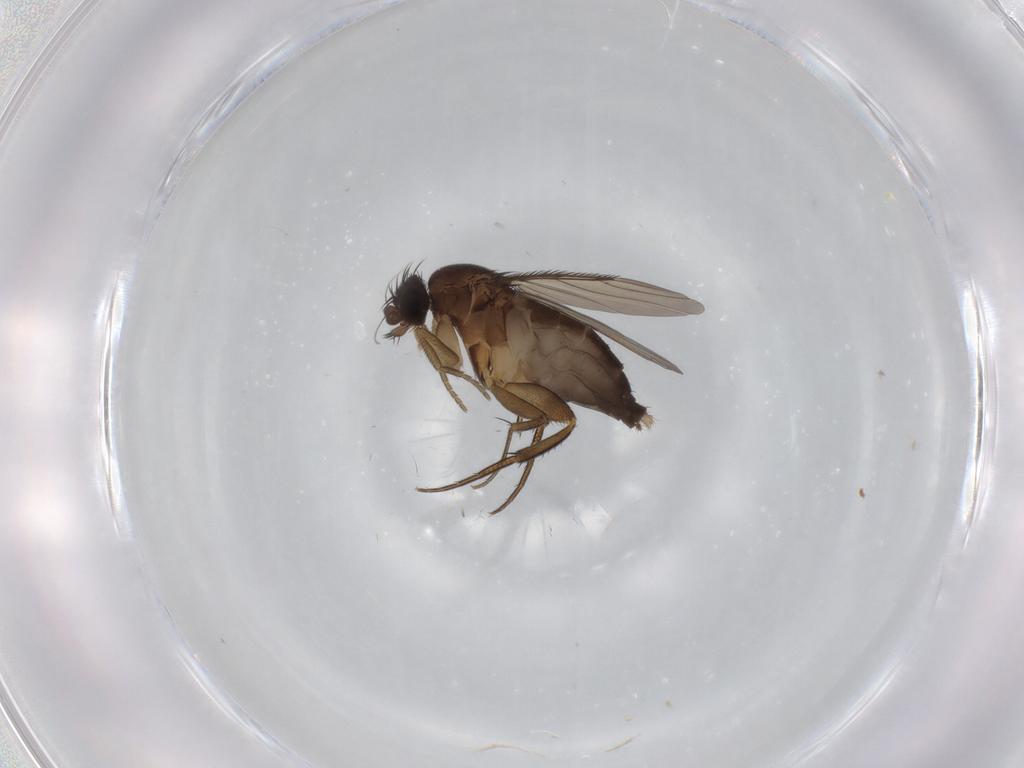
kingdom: Animalia
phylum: Arthropoda
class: Insecta
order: Diptera
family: Phoridae
